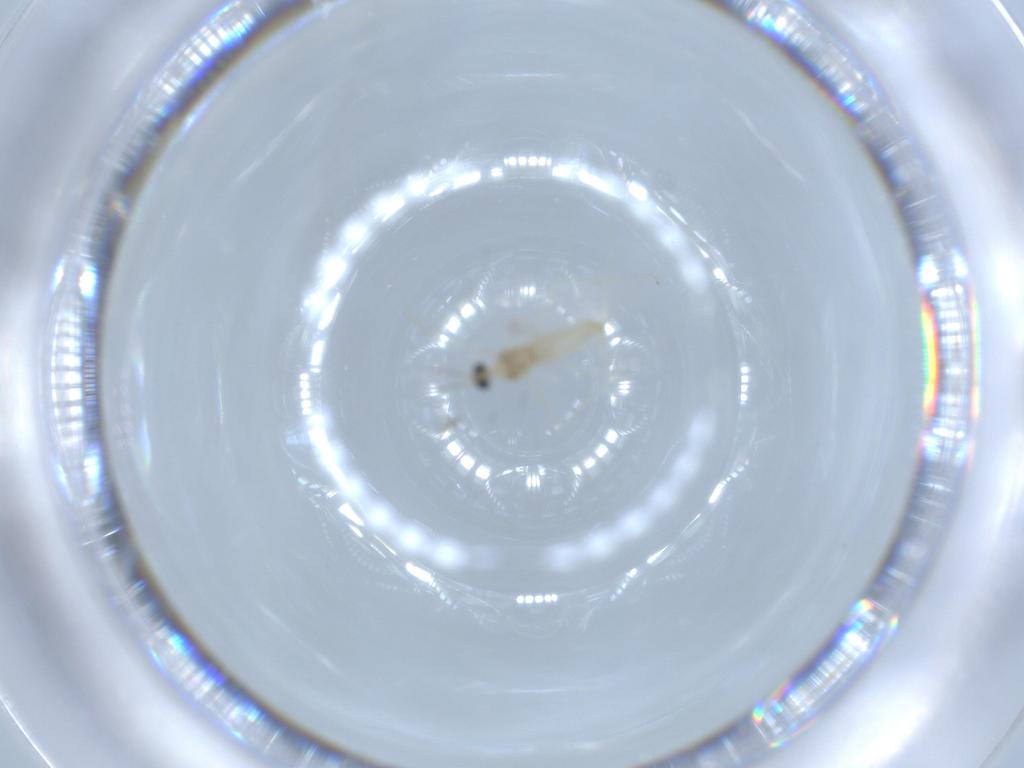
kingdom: Animalia
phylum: Arthropoda
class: Insecta
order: Diptera
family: Cecidomyiidae
